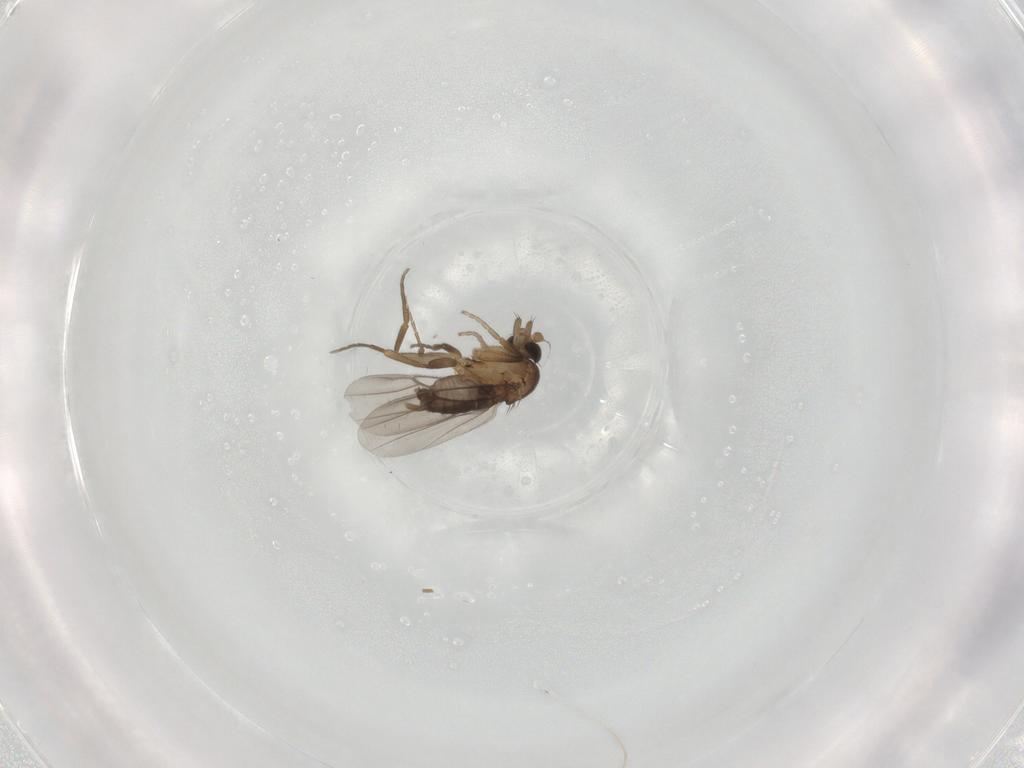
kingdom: Animalia
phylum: Arthropoda
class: Insecta
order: Diptera
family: Phoridae
